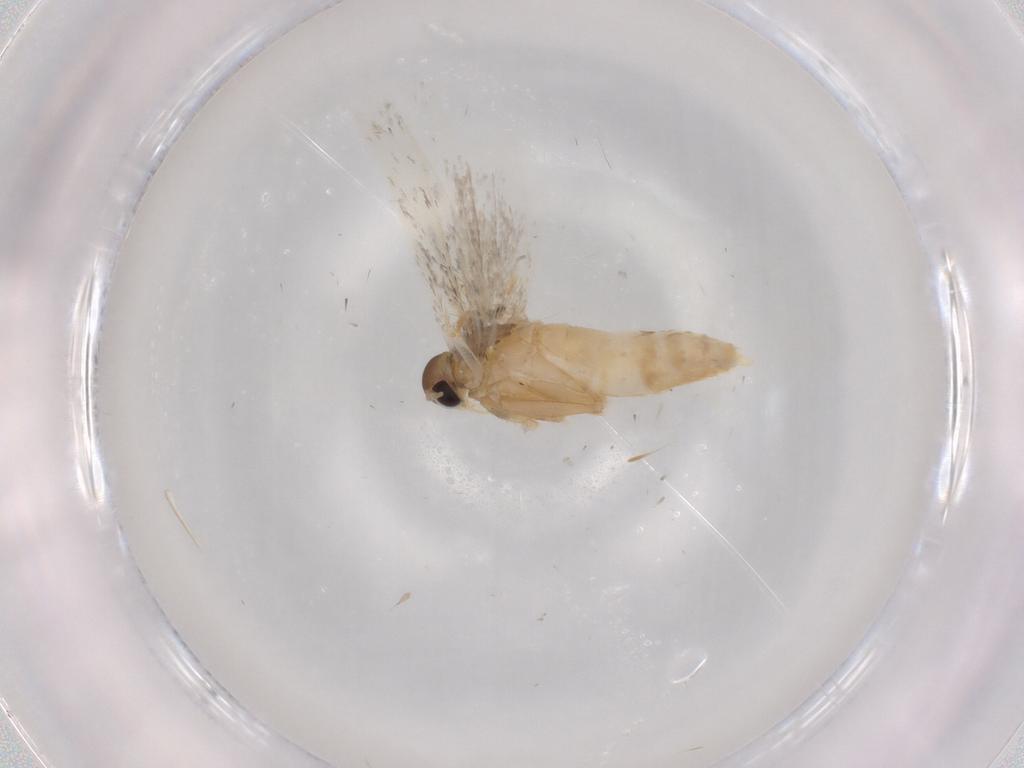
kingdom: Animalia
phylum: Arthropoda
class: Insecta
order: Lepidoptera
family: Autostichidae
